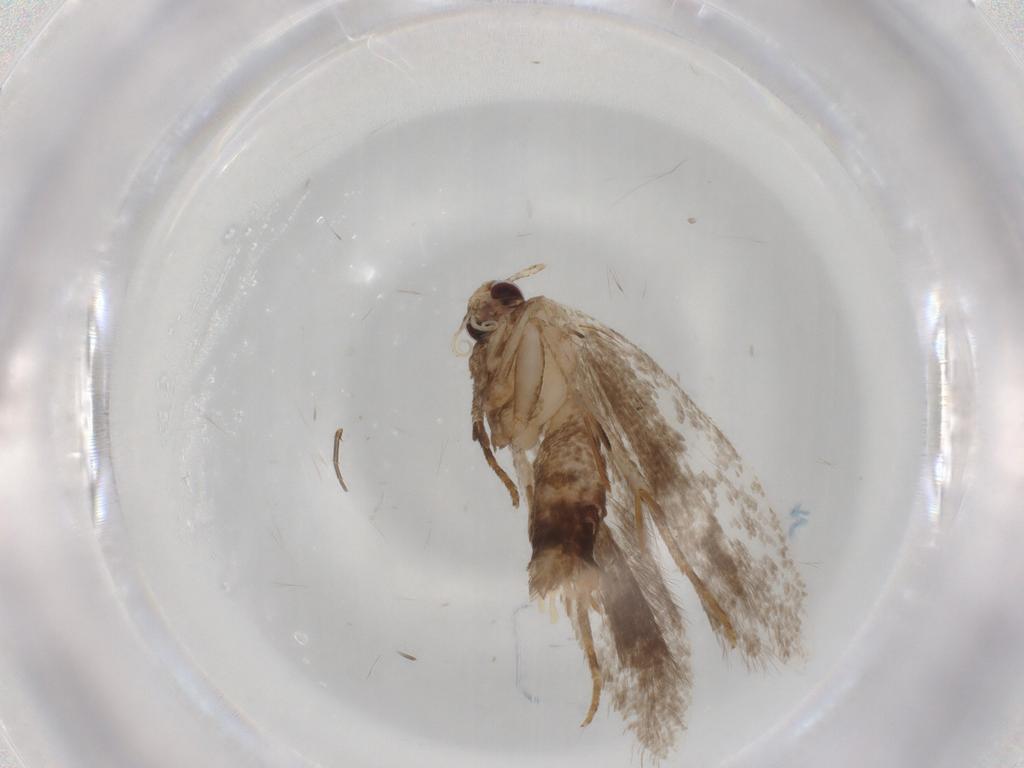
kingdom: Animalia
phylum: Arthropoda
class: Insecta
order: Lepidoptera
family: Gelechiidae
